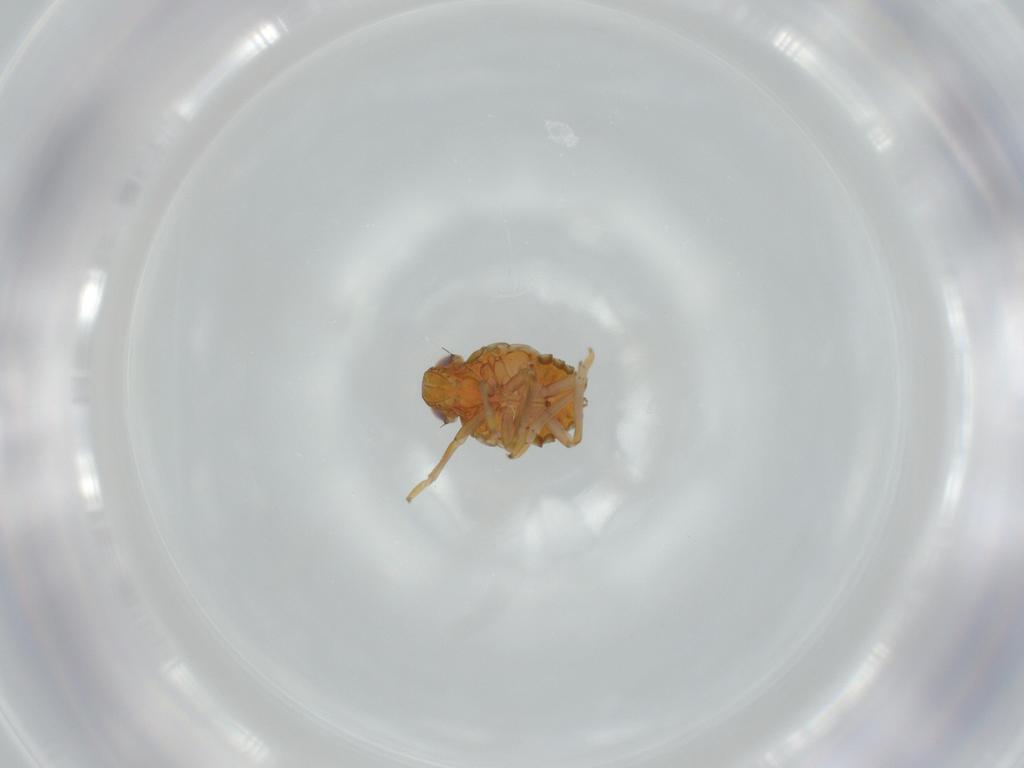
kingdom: Animalia
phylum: Arthropoda
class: Insecta
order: Hemiptera
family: Issidae
